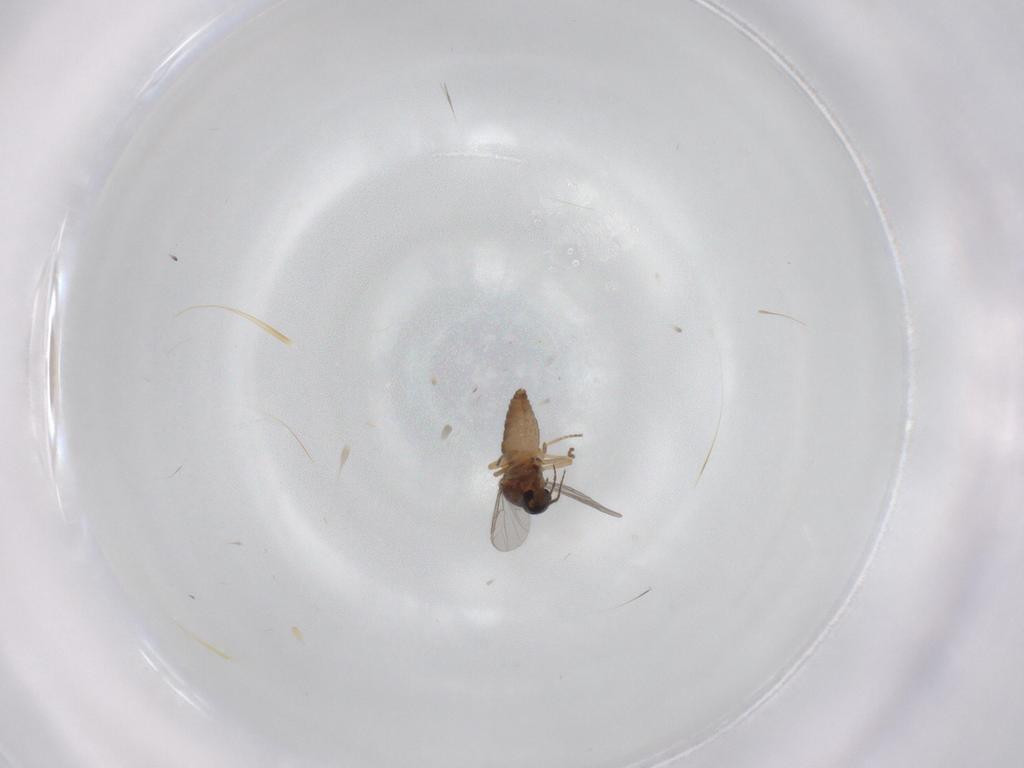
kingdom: Animalia
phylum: Arthropoda
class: Insecta
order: Diptera
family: Ceratopogonidae
